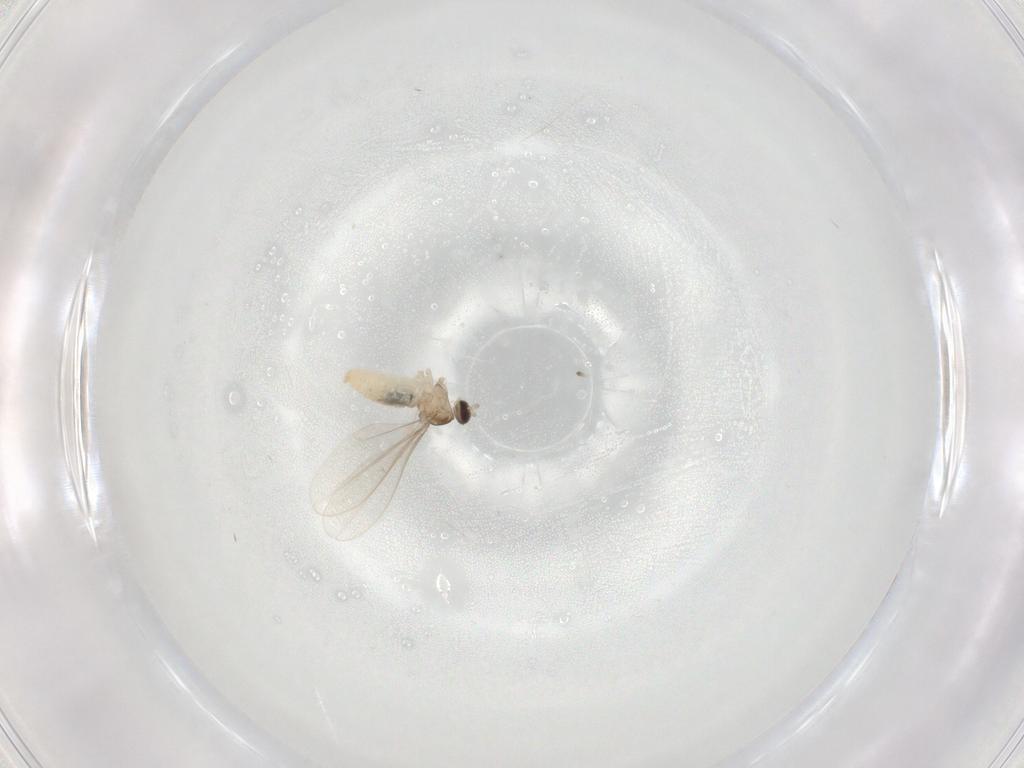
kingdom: Animalia
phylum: Arthropoda
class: Insecta
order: Diptera
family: Cecidomyiidae
